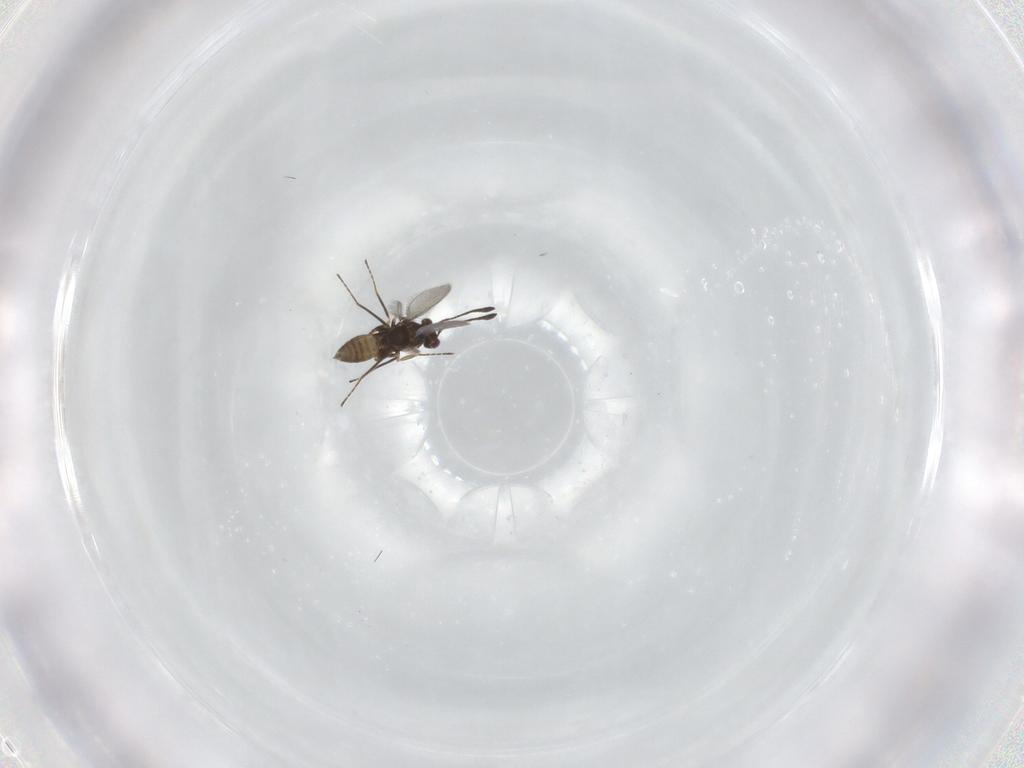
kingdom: Animalia
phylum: Arthropoda
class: Insecta
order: Hymenoptera
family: Mymaridae
